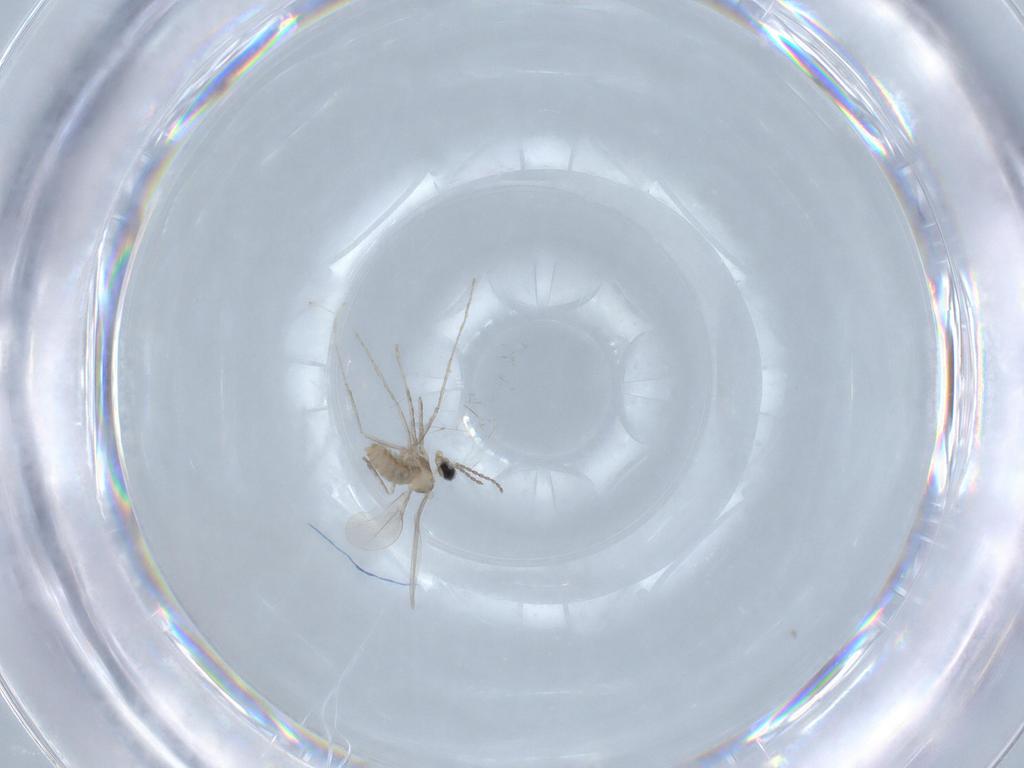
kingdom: Animalia
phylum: Arthropoda
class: Insecta
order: Diptera
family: Cecidomyiidae
